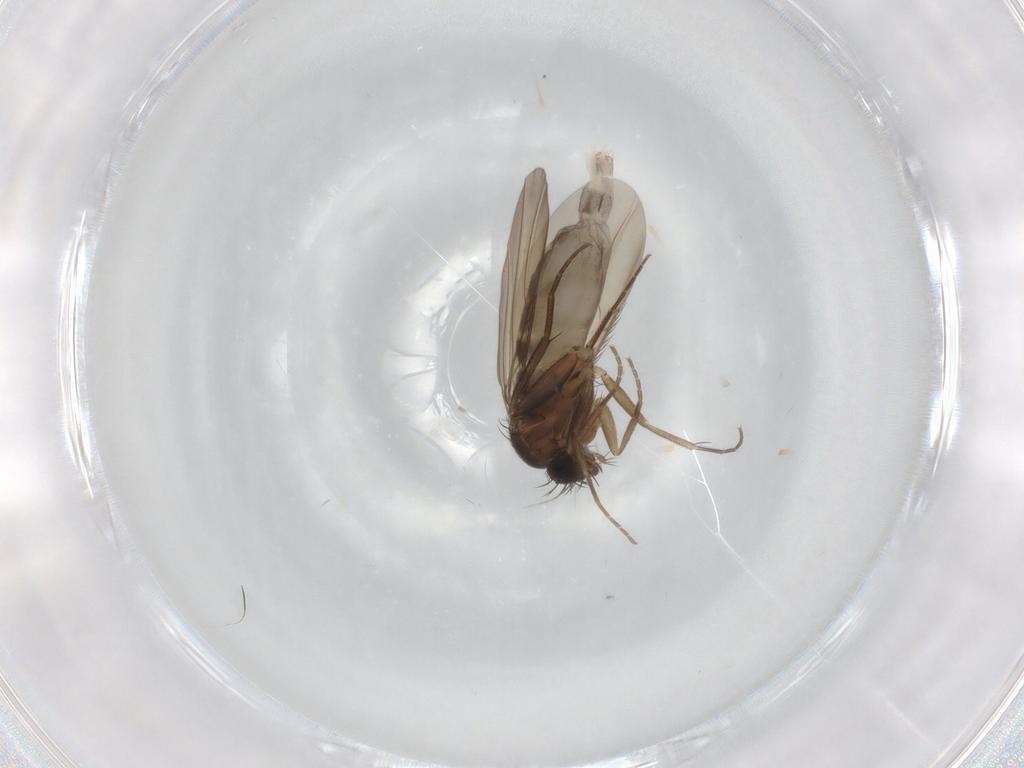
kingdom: Animalia
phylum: Arthropoda
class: Insecta
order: Diptera
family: Phoridae
